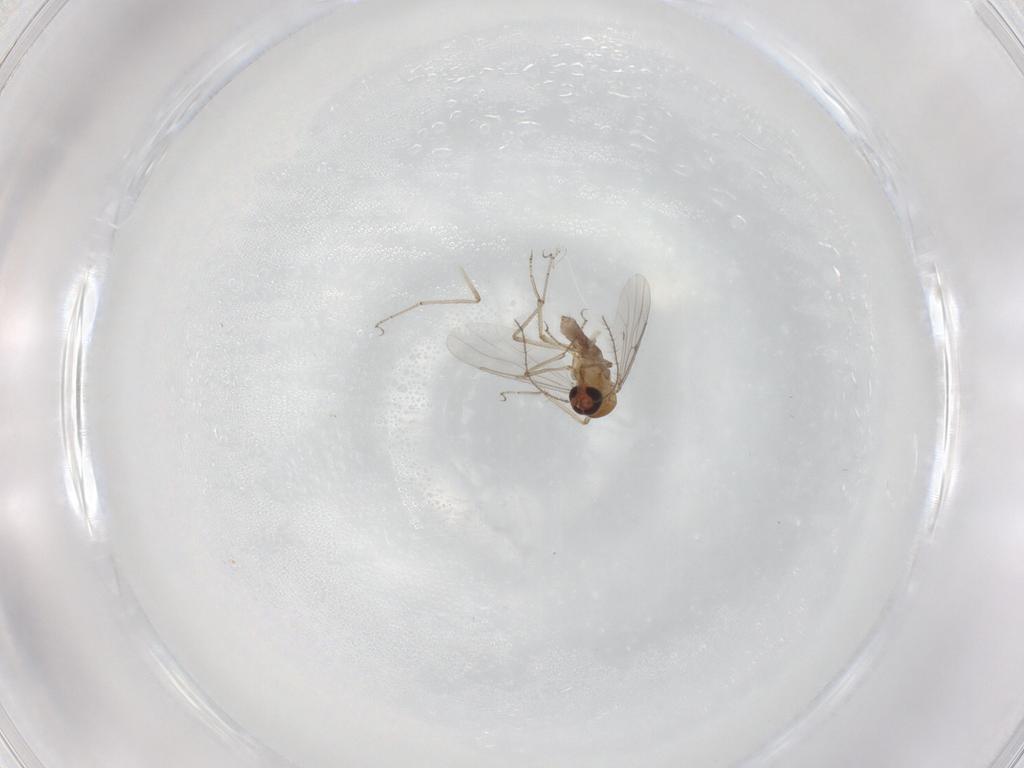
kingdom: Animalia
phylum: Arthropoda
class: Insecta
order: Diptera
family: Ceratopogonidae
